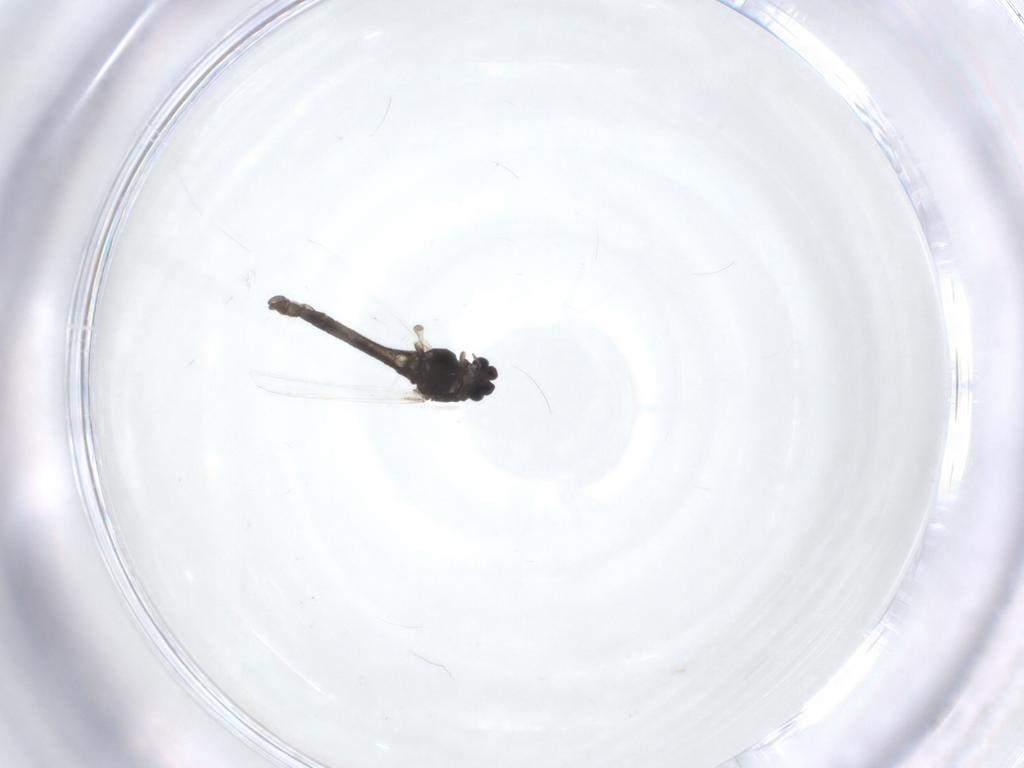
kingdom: Animalia
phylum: Arthropoda
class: Insecta
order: Diptera
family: Chironomidae
